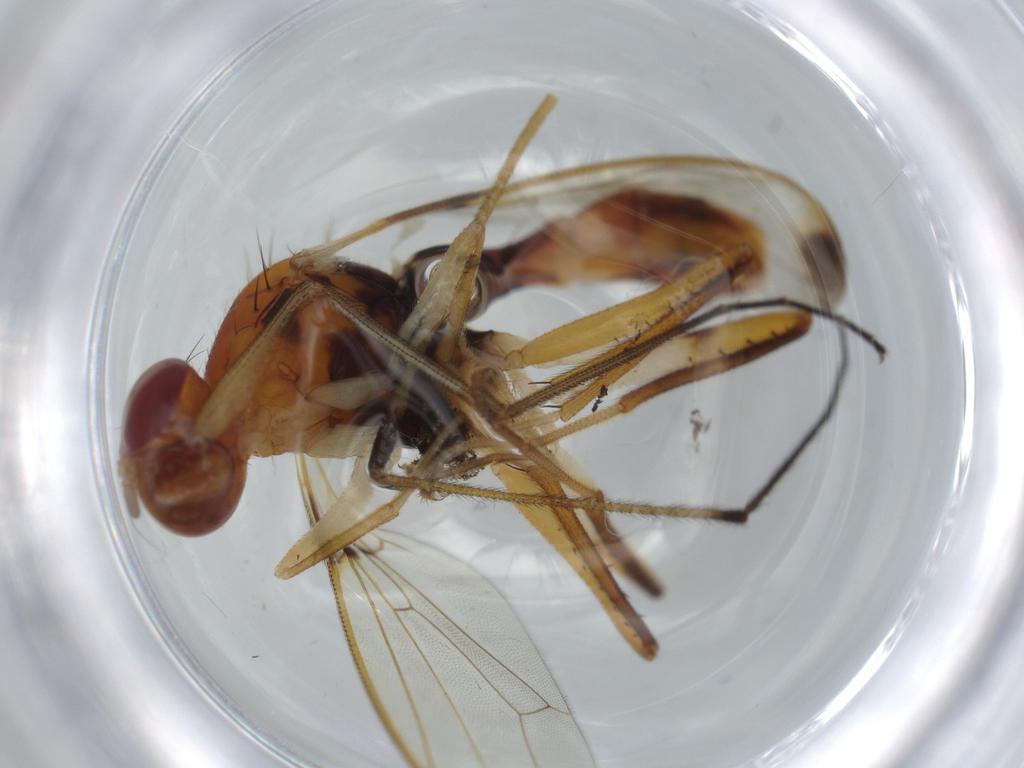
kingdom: Animalia
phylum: Arthropoda
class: Insecta
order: Diptera
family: Richardiidae
